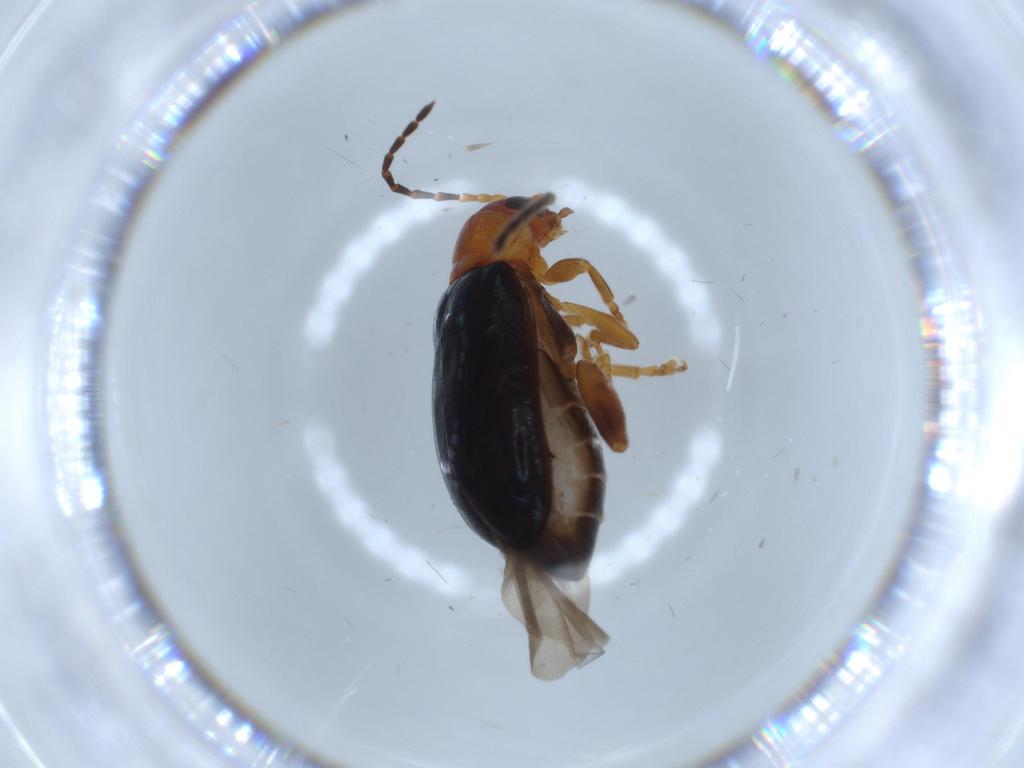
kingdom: Animalia
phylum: Arthropoda
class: Insecta
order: Coleoptera
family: Chrysomelidae
